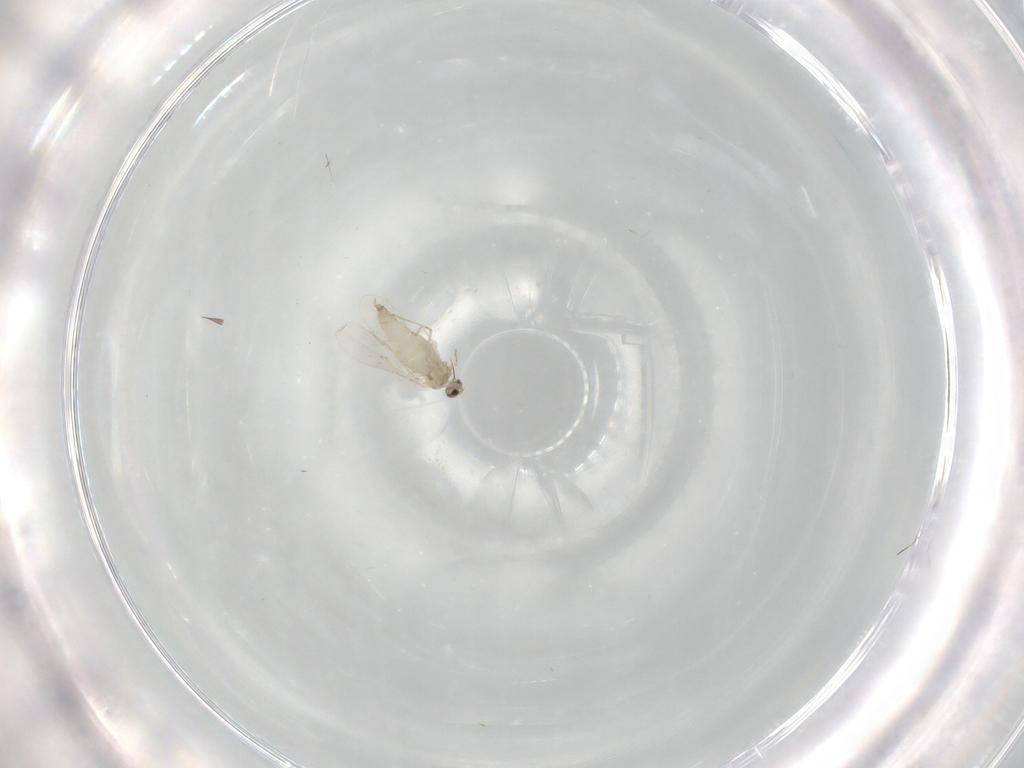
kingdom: Animalia
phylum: Arthropoda
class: Insecta
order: Diptera
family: Cecidomyiidae
